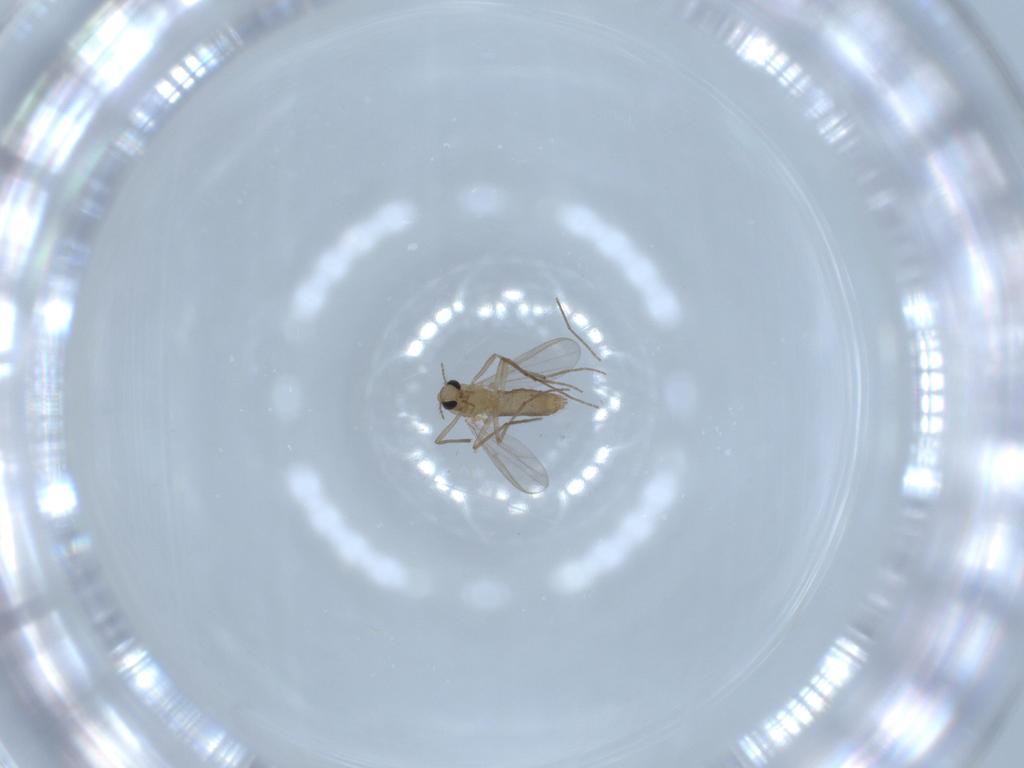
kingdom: Animalia
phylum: Arthropoda
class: Insecta
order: Diptera
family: Chironomidae
